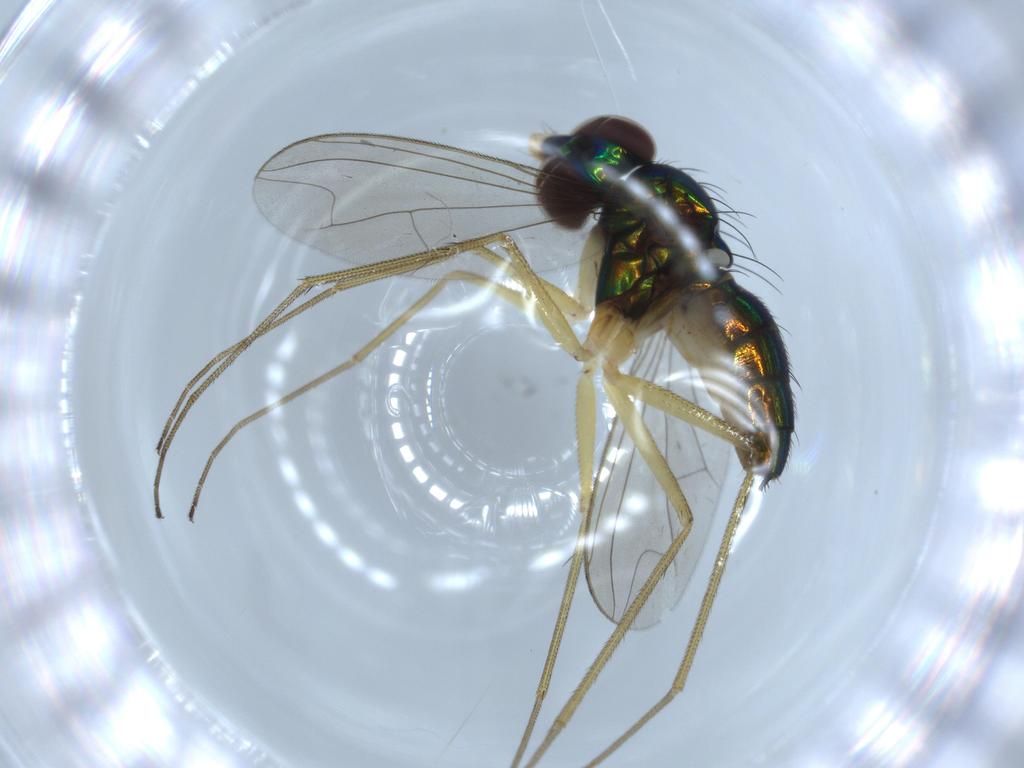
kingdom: Animalia
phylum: Arthropoda
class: Insecta
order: Diptera
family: Dolichopodidae
